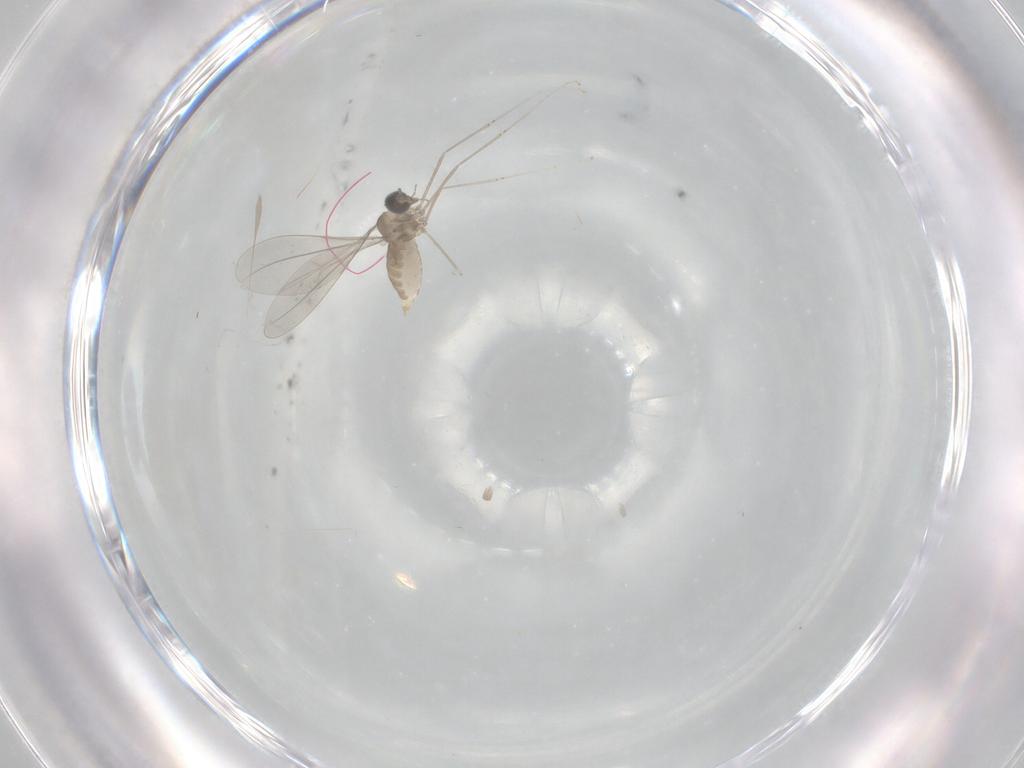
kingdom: Animalia
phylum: Arthropoda
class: Insecta
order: Diptera
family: Cecidomyiidae
